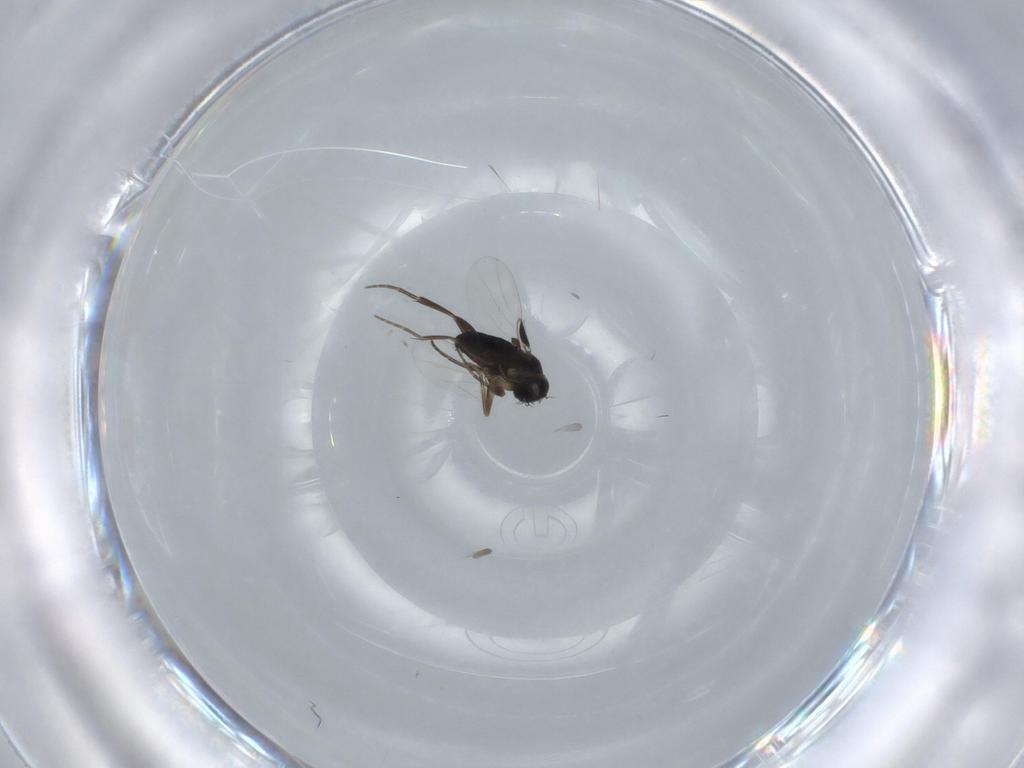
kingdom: Animalia
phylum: Arthropoda
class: Insecta
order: Diptera
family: Phoridae
